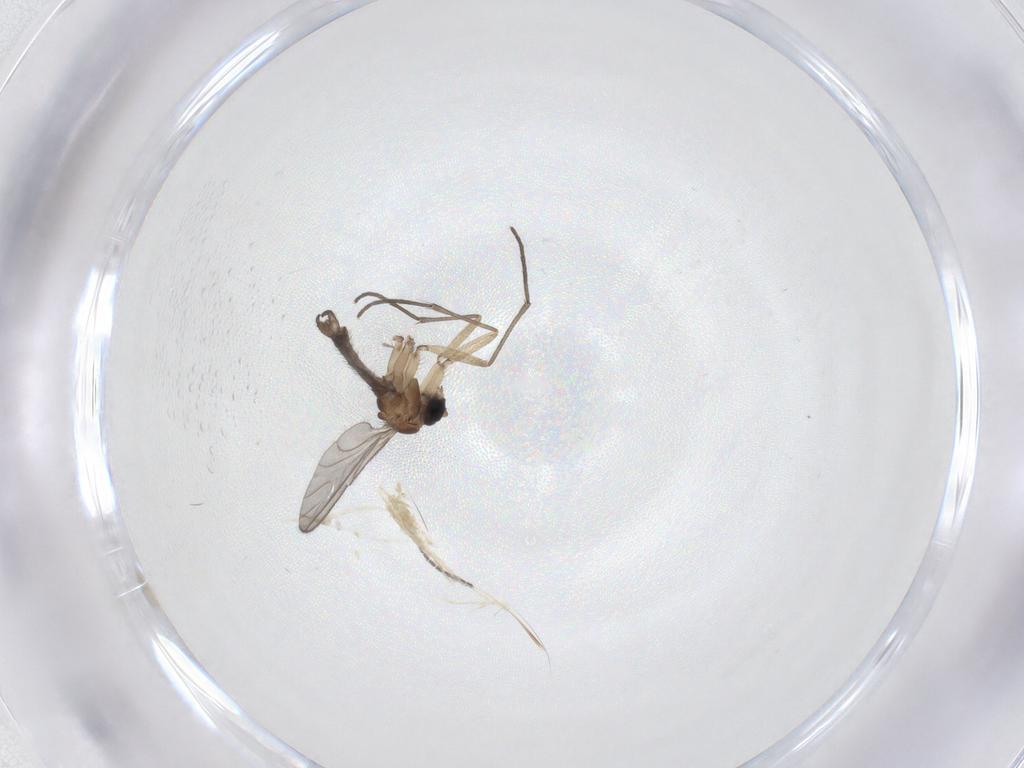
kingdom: Animalia
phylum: Arthropoda
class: Insecta
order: Diptera
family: Sciaridae
